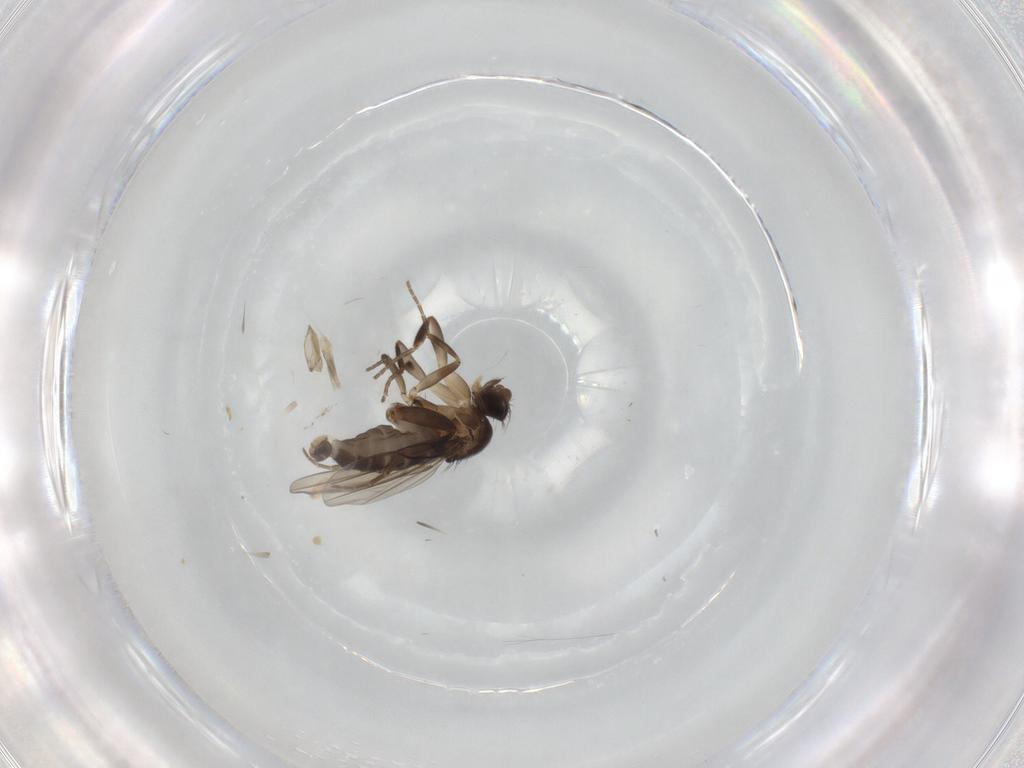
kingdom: Animalia
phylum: Arthropoda
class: Insecta
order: Diptera
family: Phoridae
